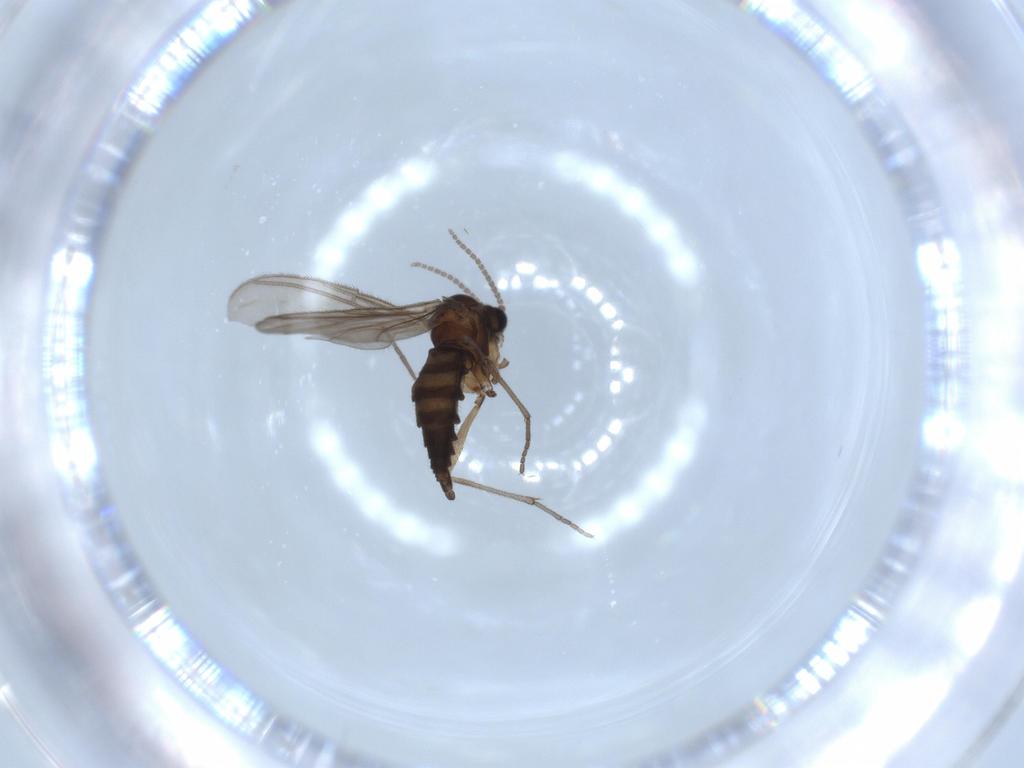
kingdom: Animalia
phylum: Arthropoda
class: Insecta
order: Diptera
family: Sciaridae
